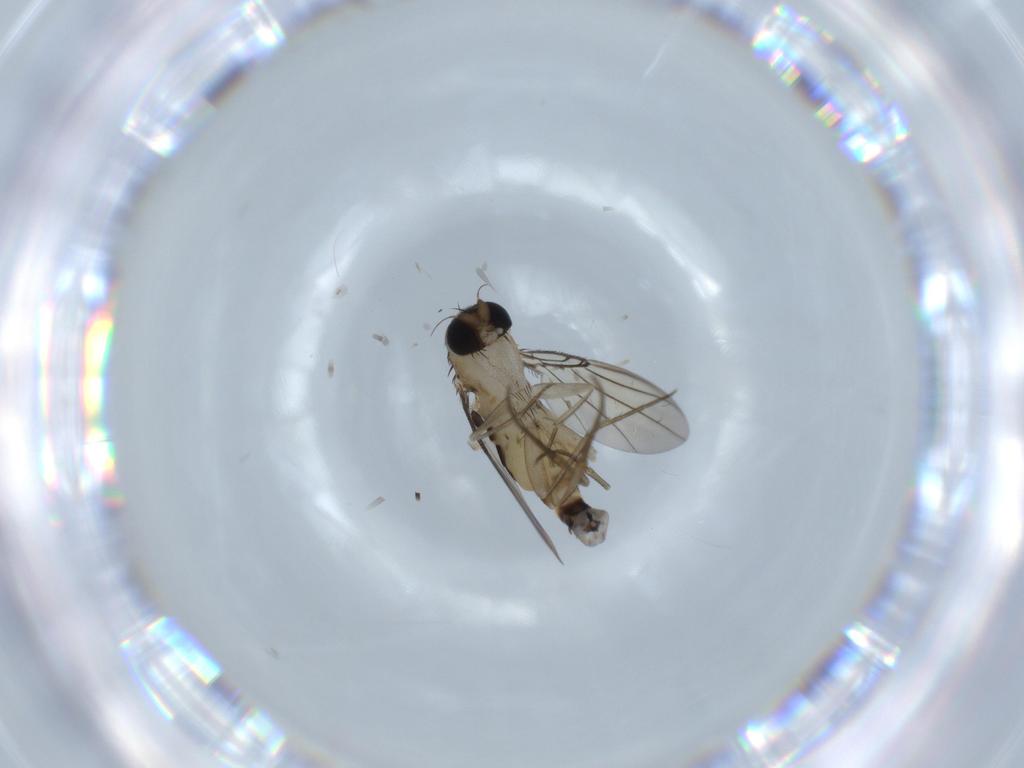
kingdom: Animalia
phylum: Arthropoda
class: Insecta
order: Diptera
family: Phoridae
